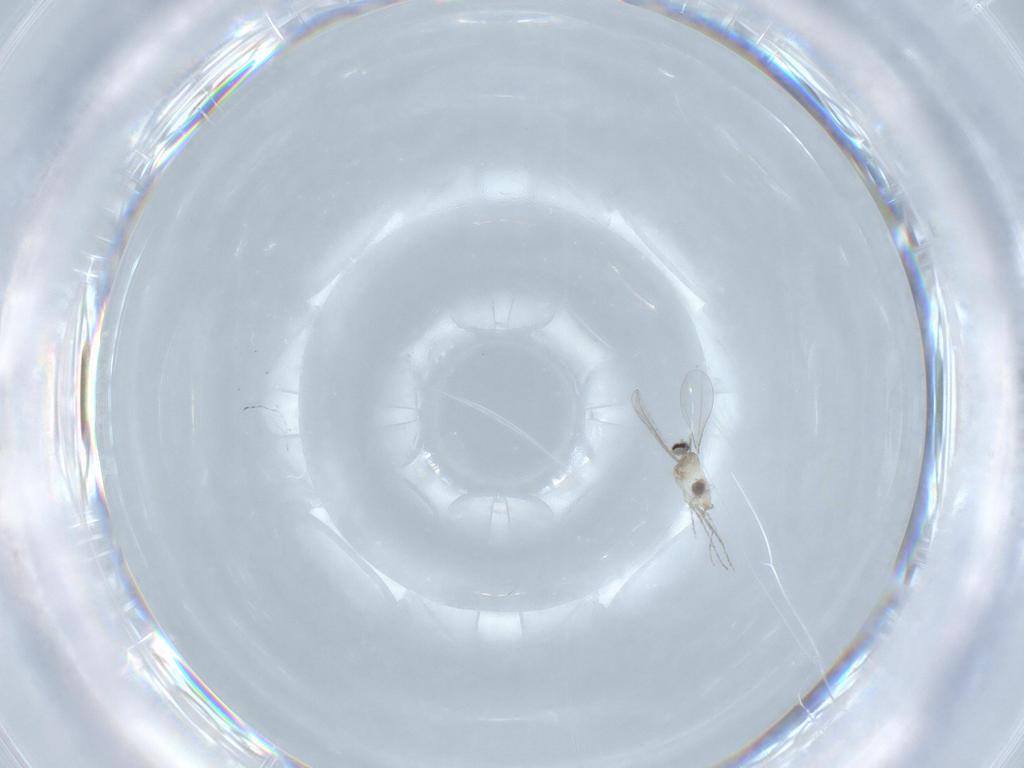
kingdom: Animalia
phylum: Arthropoda
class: Insecta
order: Diptera
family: Cecidomyiidae
